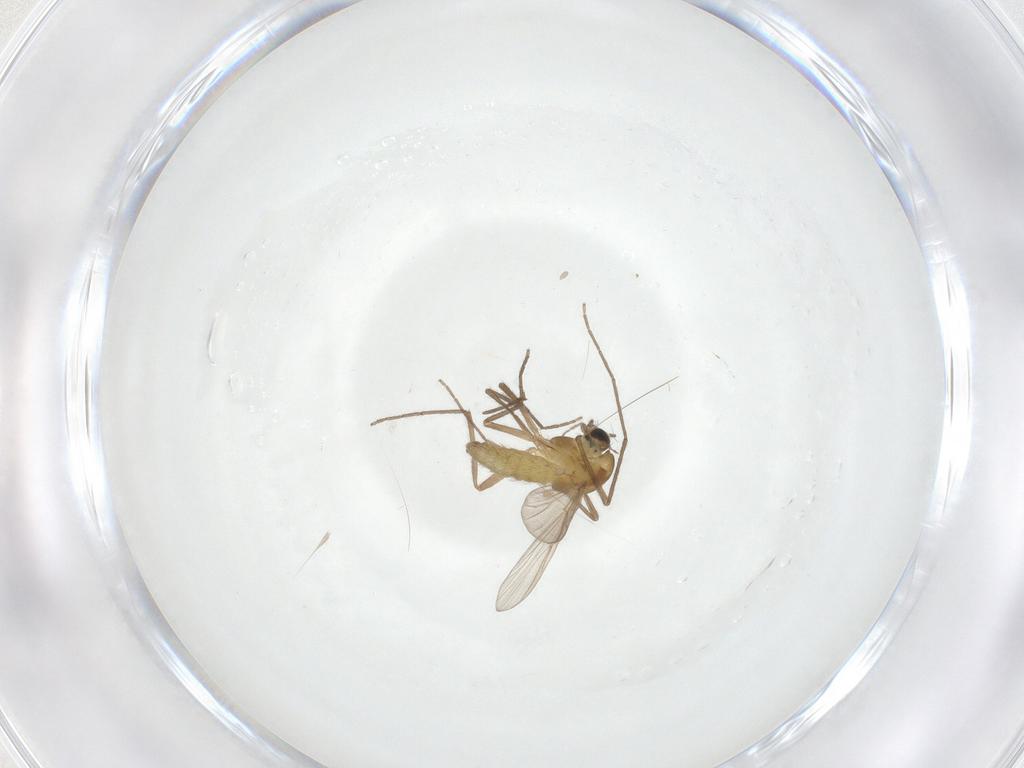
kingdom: Animalia
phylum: Arthropoda
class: Insecta
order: Diptera
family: Chironomidae
